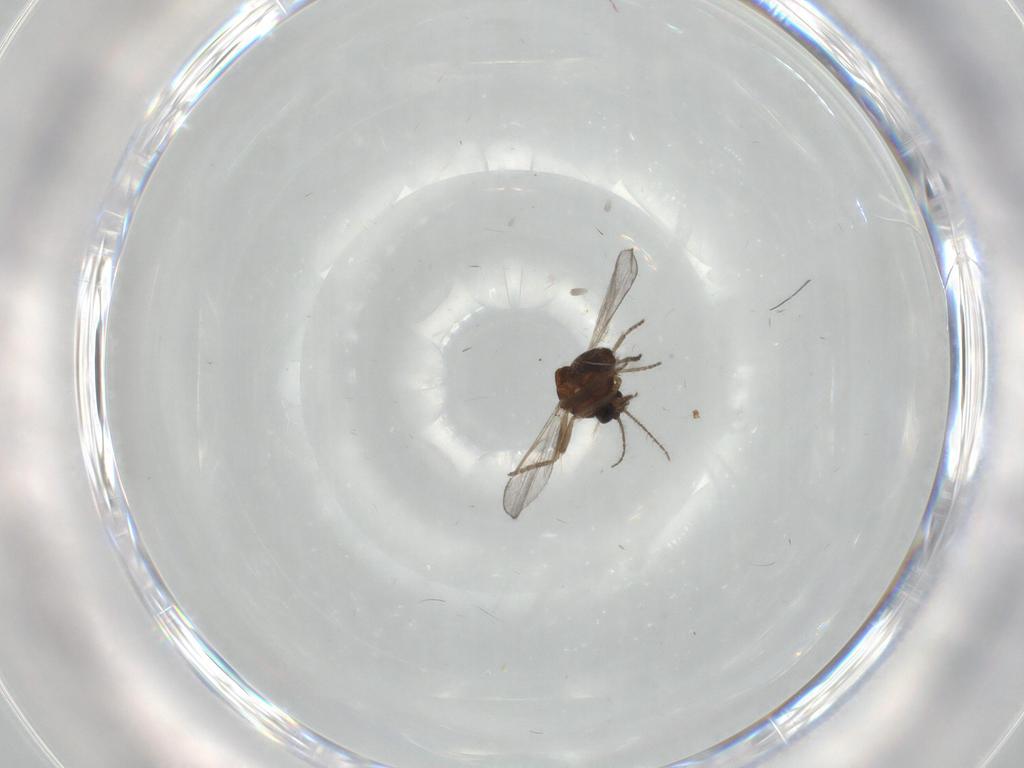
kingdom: Animalia
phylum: Arthropoda
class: Insecta
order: Diptera
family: Ceratopogonidae
